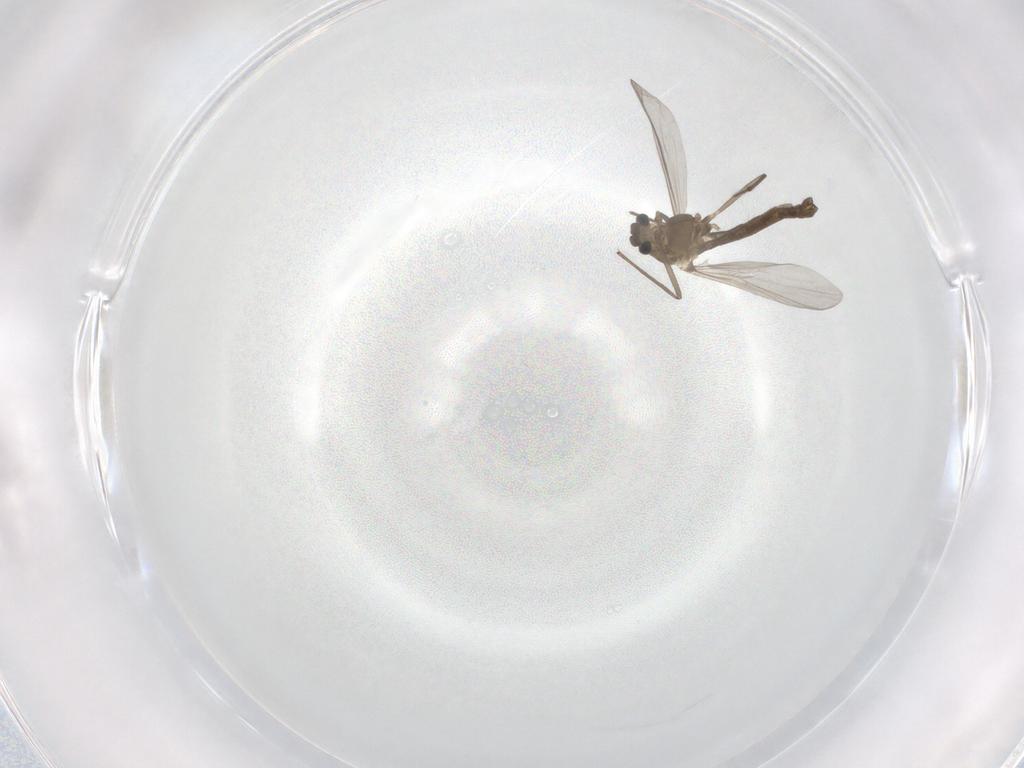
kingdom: Animalia
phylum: Arthropoda
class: Insecta
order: Diptera
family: Chironomidae
